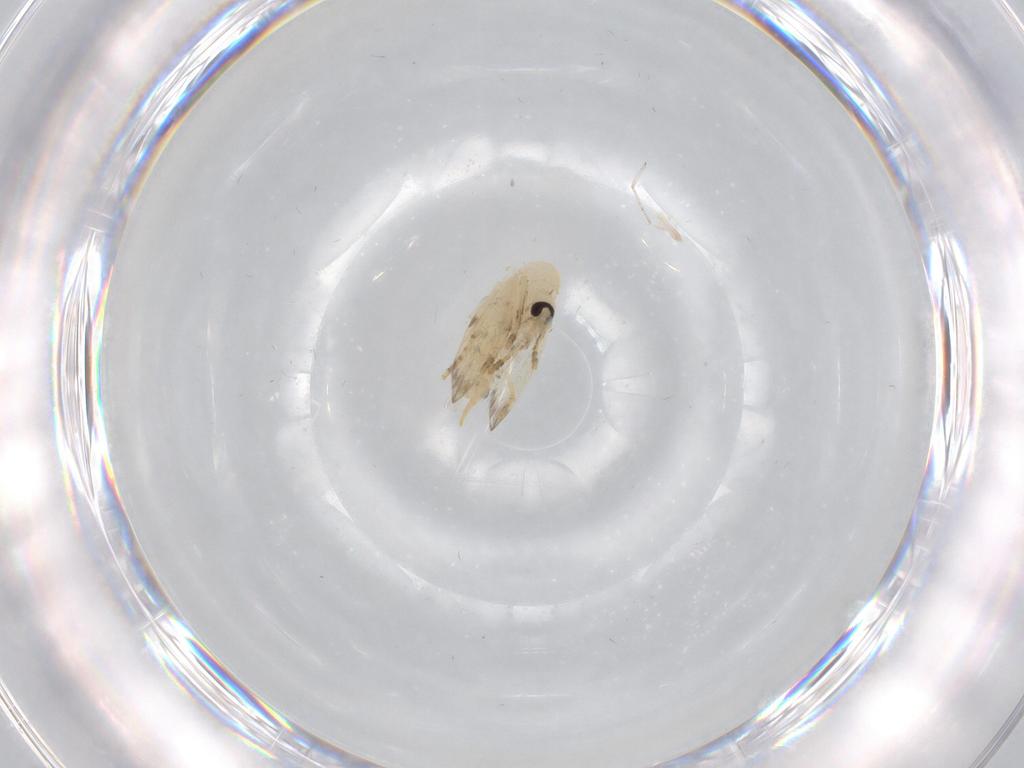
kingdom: Animalia
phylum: Arthropoda
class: Insecta
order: Diptera
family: Psychodidae
